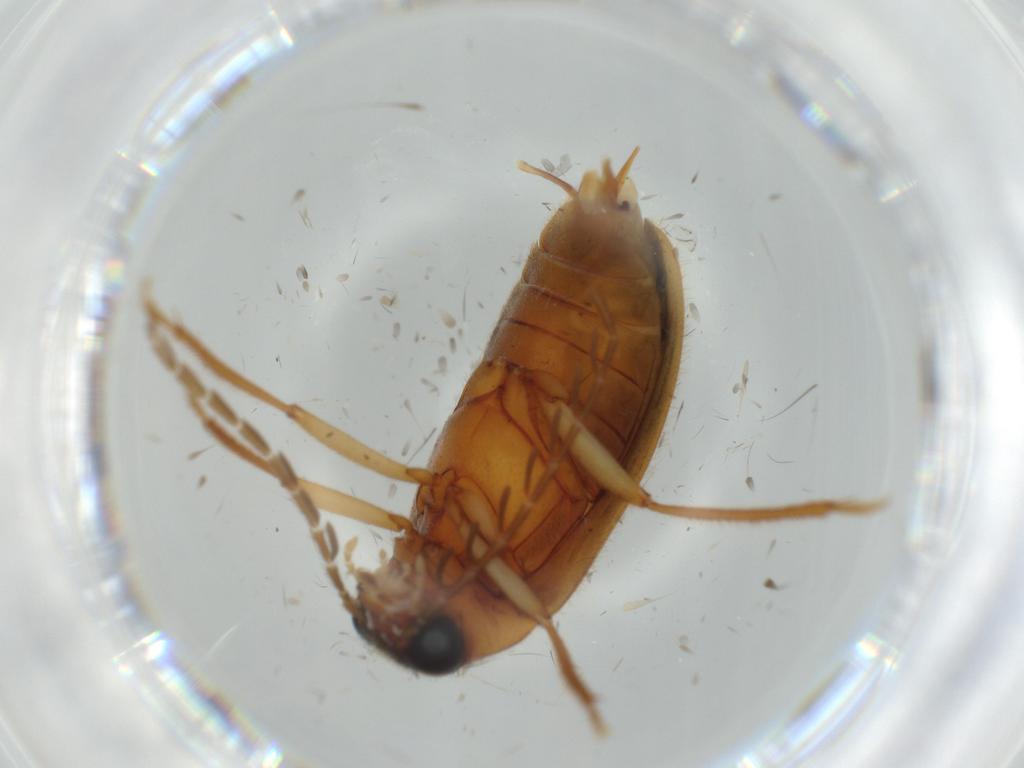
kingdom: Animalia
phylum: Arthropoda
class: Insecta
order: Coleoptera
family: Ptilodactylidae
